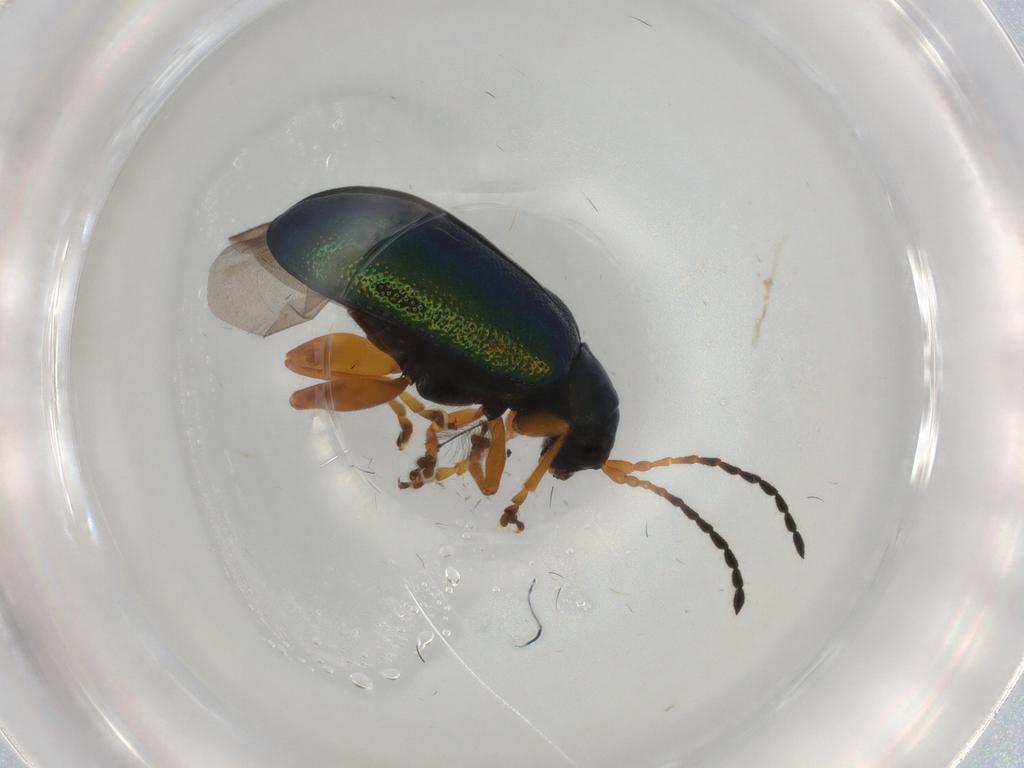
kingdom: Animalia
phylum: Arthropoda
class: Insecta
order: Coleoptera
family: Chrysomelidae
